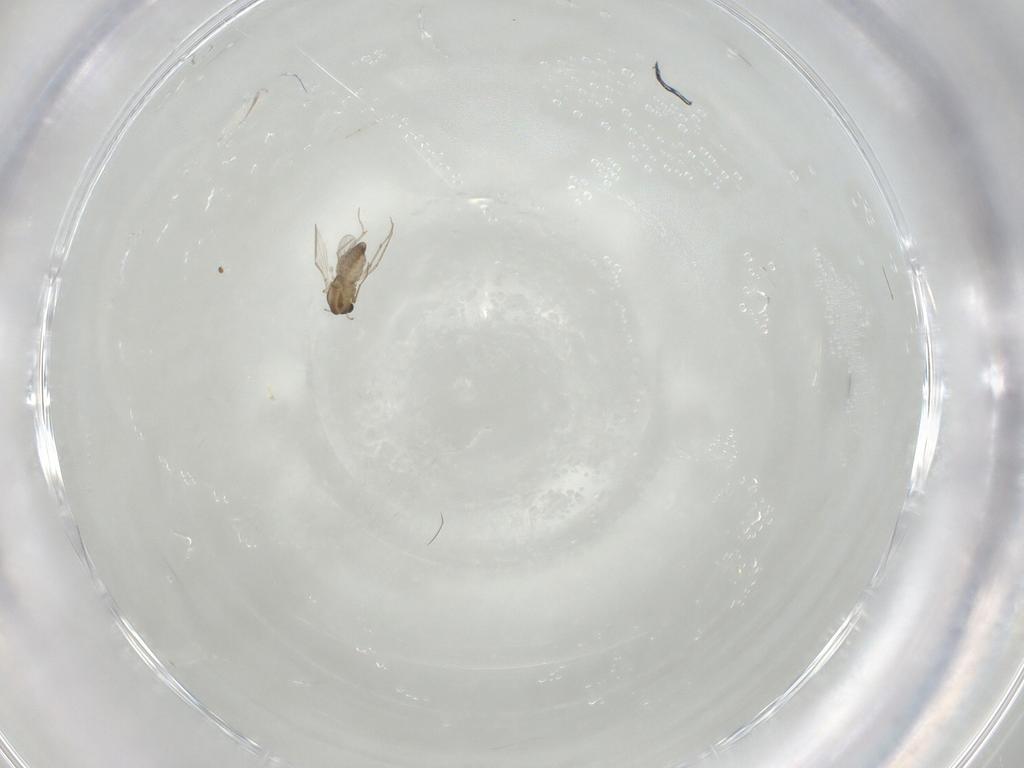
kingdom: Animalia
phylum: Arthropoda
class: Insecta
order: Diptera
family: Chironomidae
